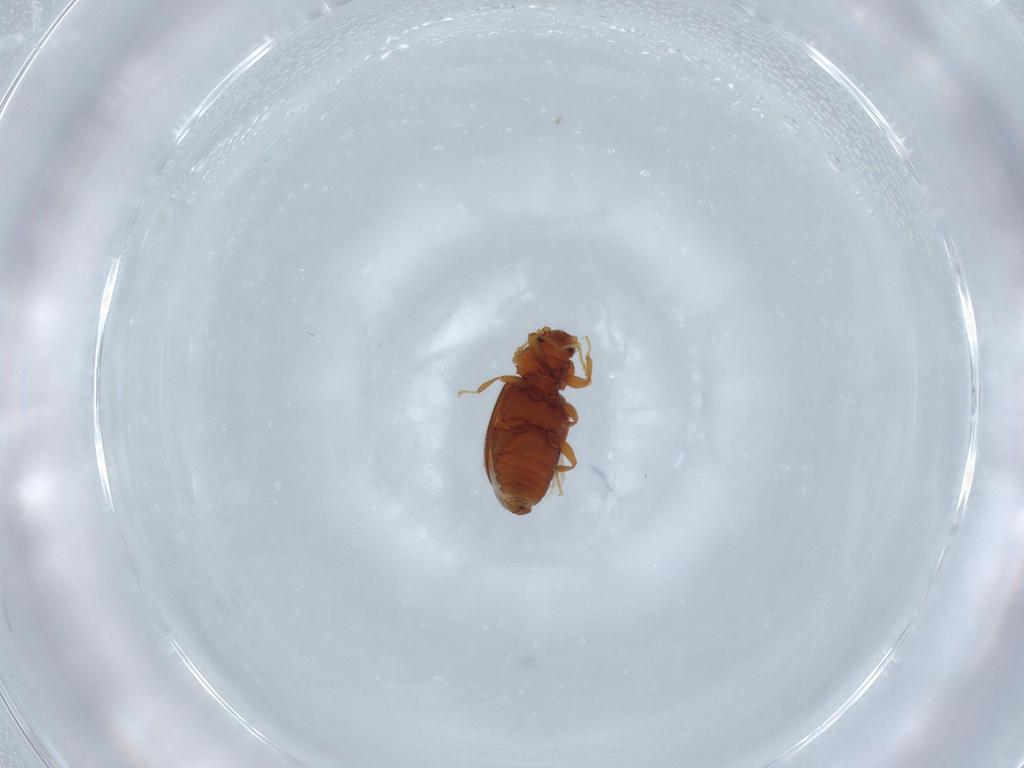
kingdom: Animalia
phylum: Arthropoda
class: Insecta
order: Coleoptera
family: Latridiidae
